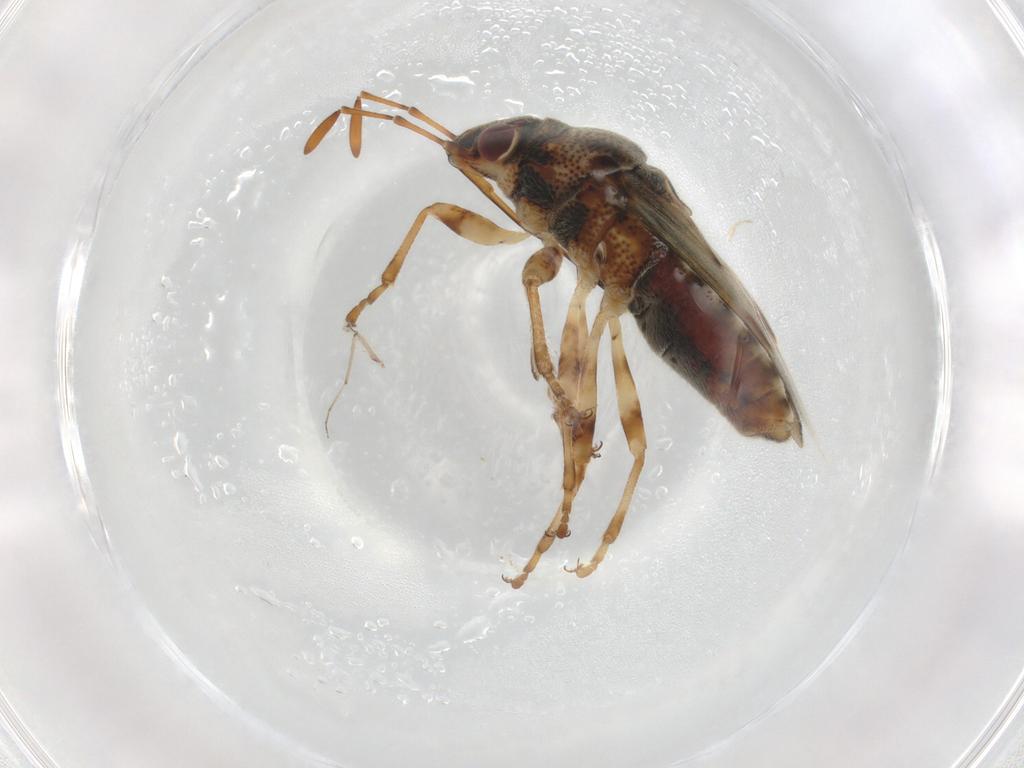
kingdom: Animalia
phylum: Arthropoda
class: Insecta
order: Hemiptera
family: Lygaeidae
